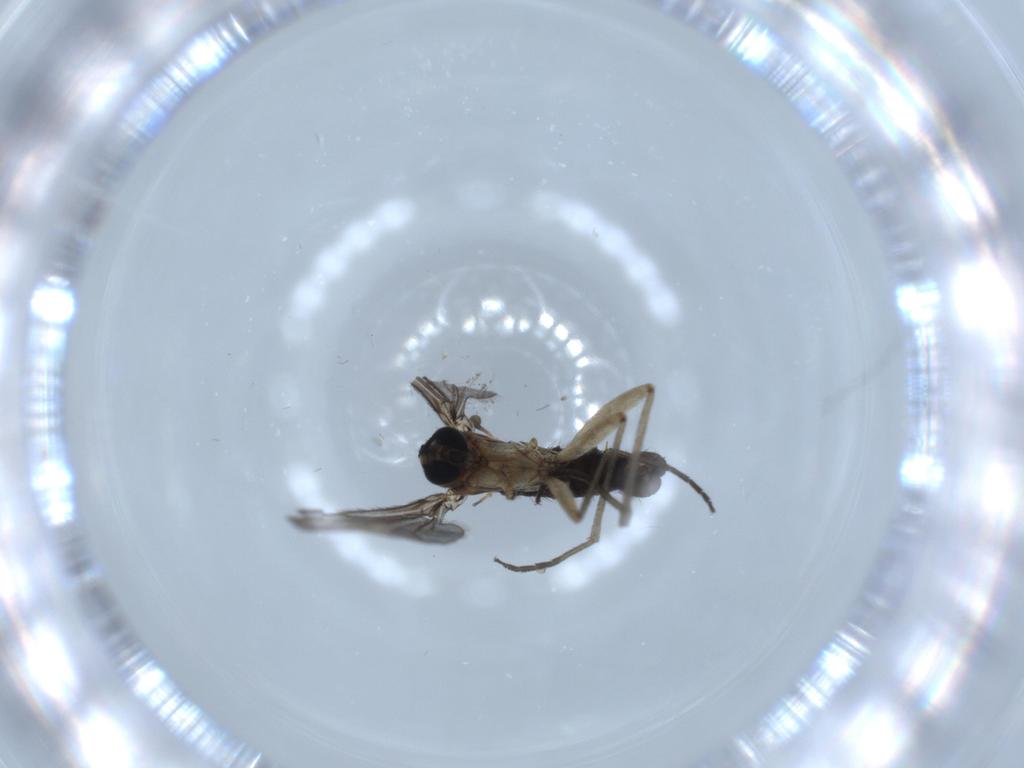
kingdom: Animalia
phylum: Arthropoda
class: Insecta
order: Diptera
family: Sciaridae
